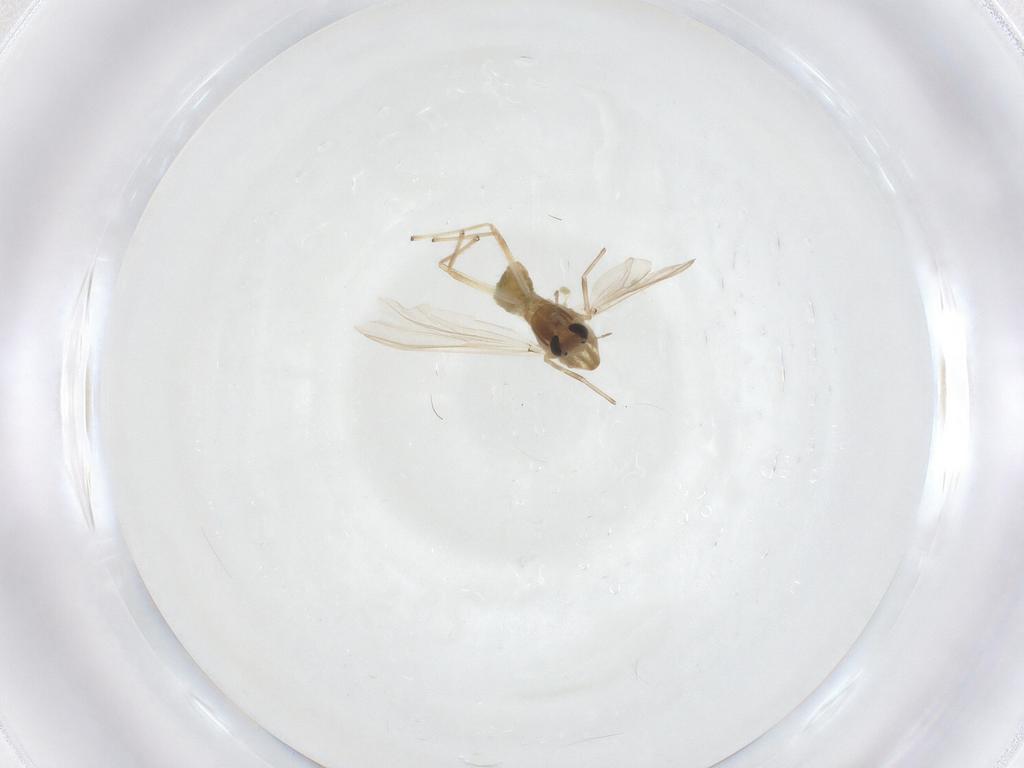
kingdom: Animalia
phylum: Arthropoda
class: Insecta
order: Diptera
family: Chironomidae
